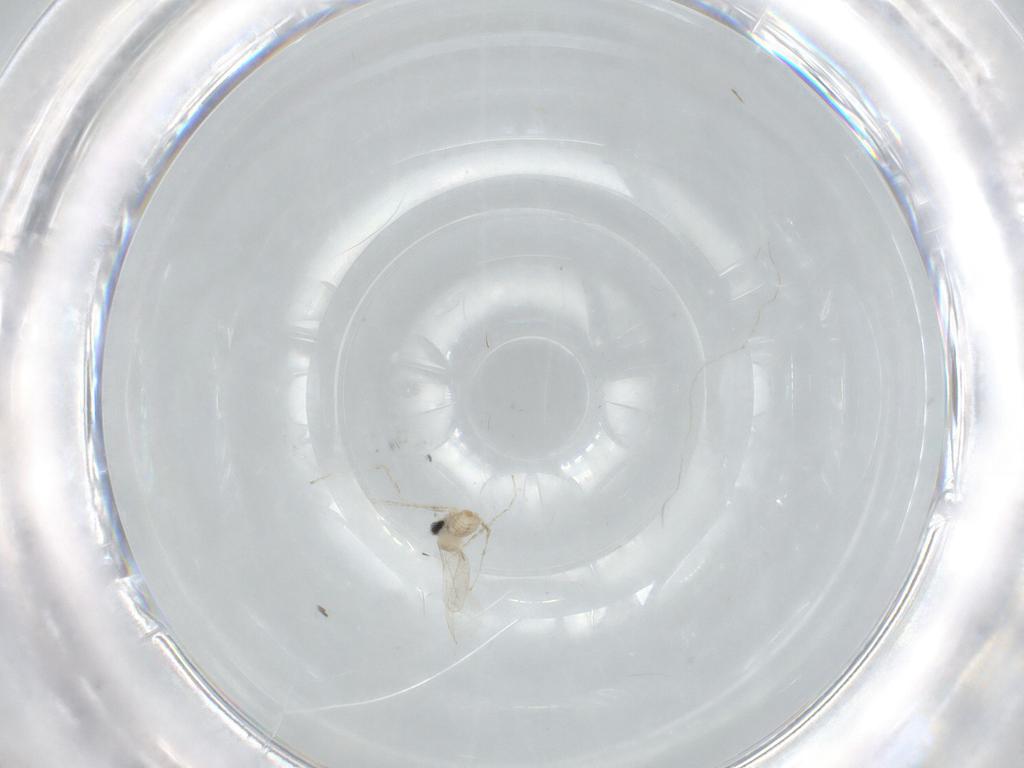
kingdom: Animalia
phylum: Arthropoda
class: Insecta
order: Diptera
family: Cecidomyiidae
